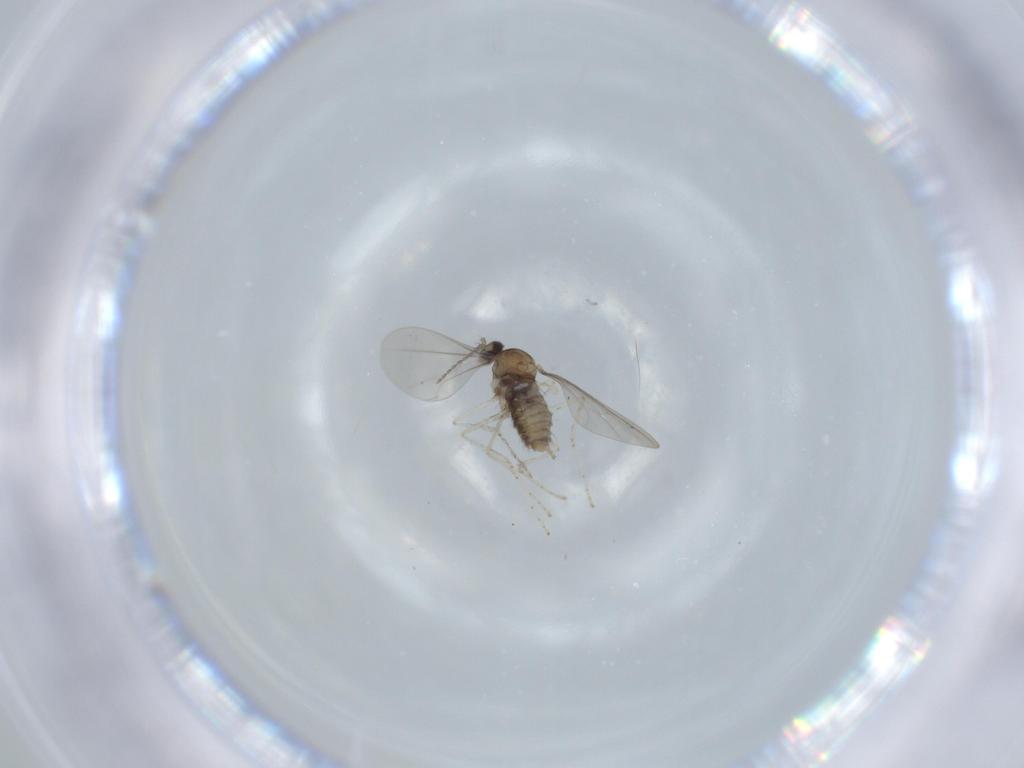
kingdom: Animalia
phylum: Arthropoda
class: Insecta
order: Diptera
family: Cecidomyiidae
